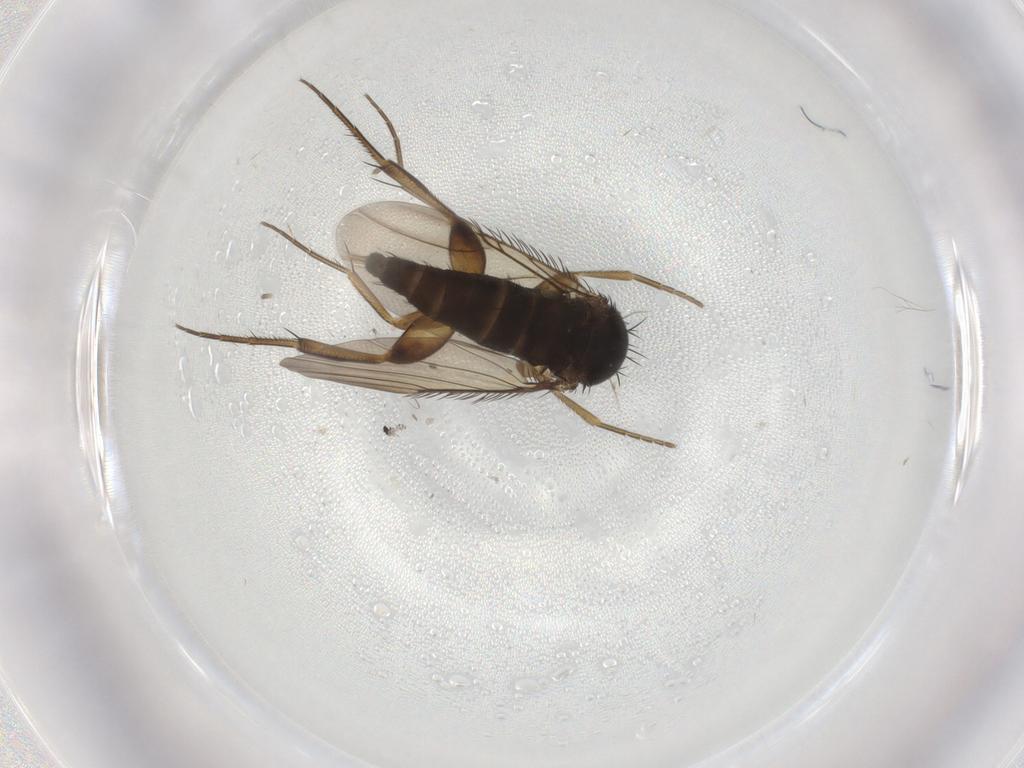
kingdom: Animalia
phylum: Arthropoda
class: Insecta
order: Diptera
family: Phoridae
